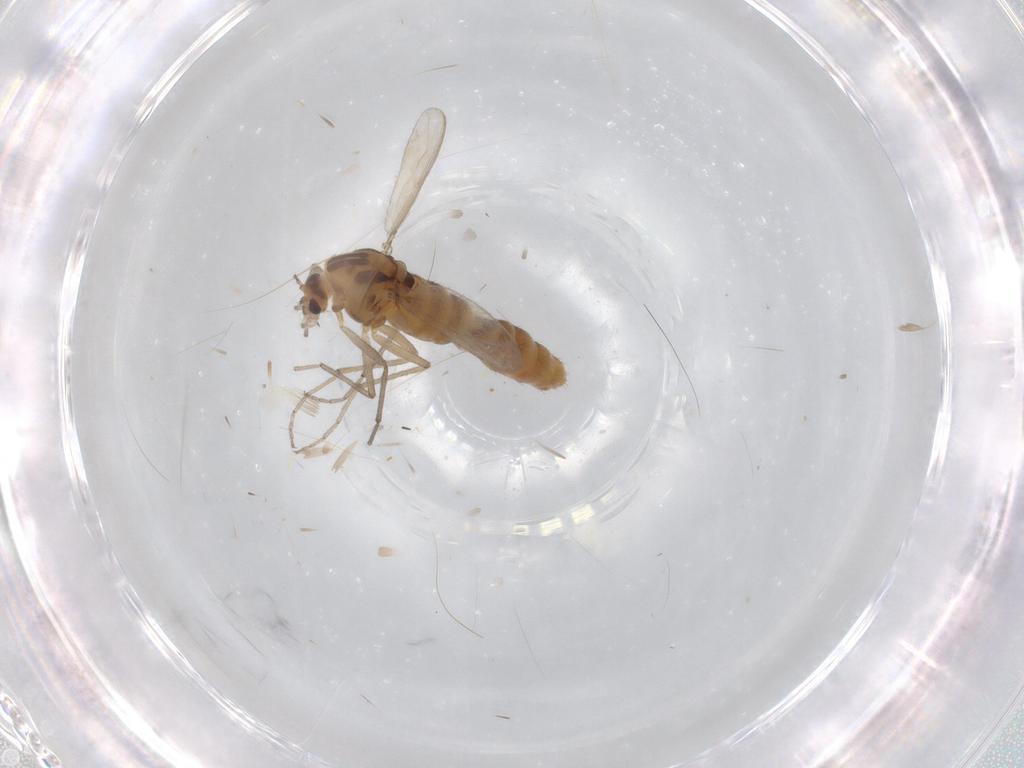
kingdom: Animalia
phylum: Arthropoda
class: Insecta
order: Diptera
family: Chironomidae
